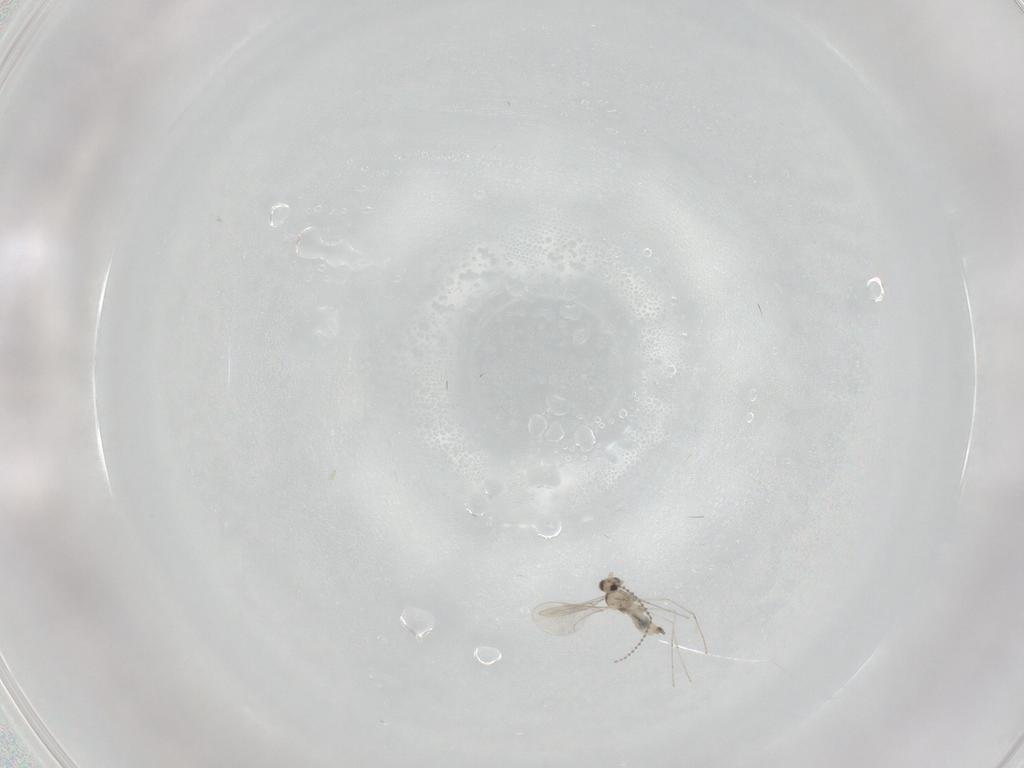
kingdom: Animalia
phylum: Arthropoda
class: Insecta
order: Diptera
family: Cecidomyiidae
